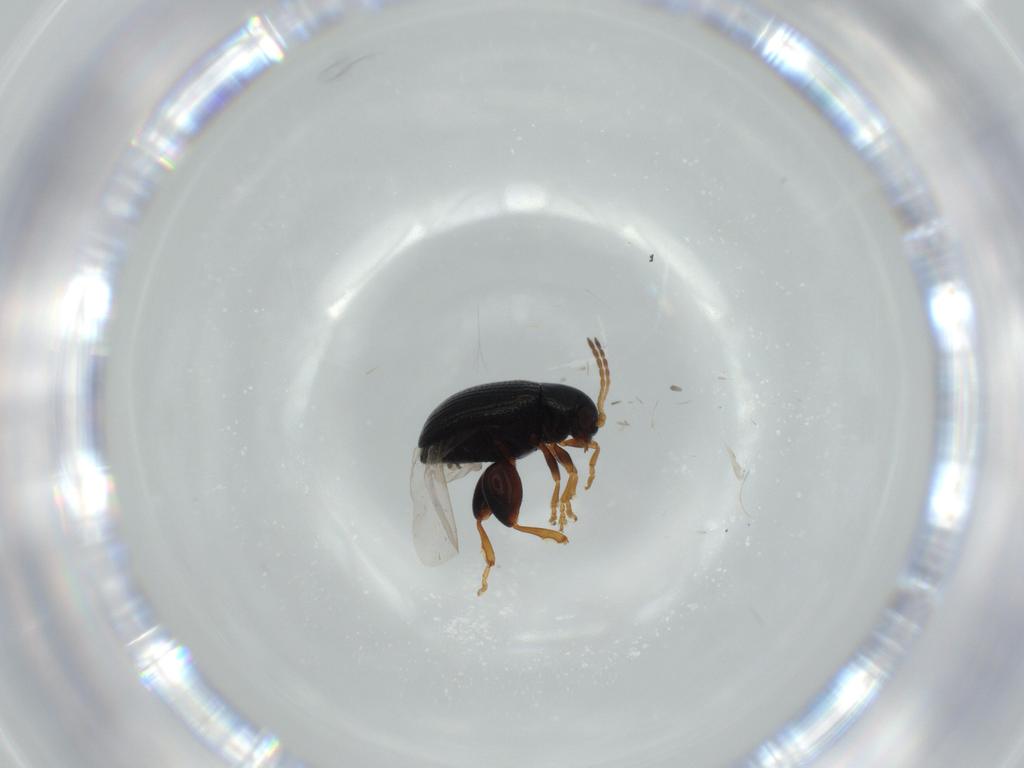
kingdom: Animalia
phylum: Arthropoda
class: Insecta
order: Coleoptera
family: Chrysomelidae
